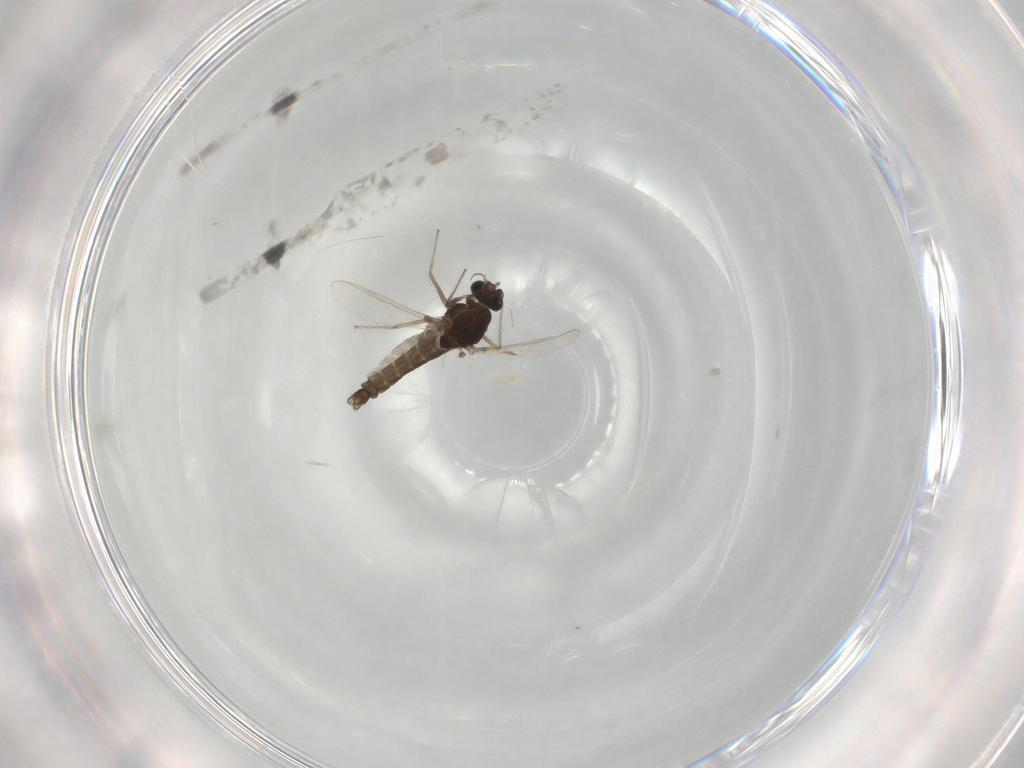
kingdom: Animalia
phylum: Arthropoda
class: Insecta
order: Diptera
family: Chironomidae
